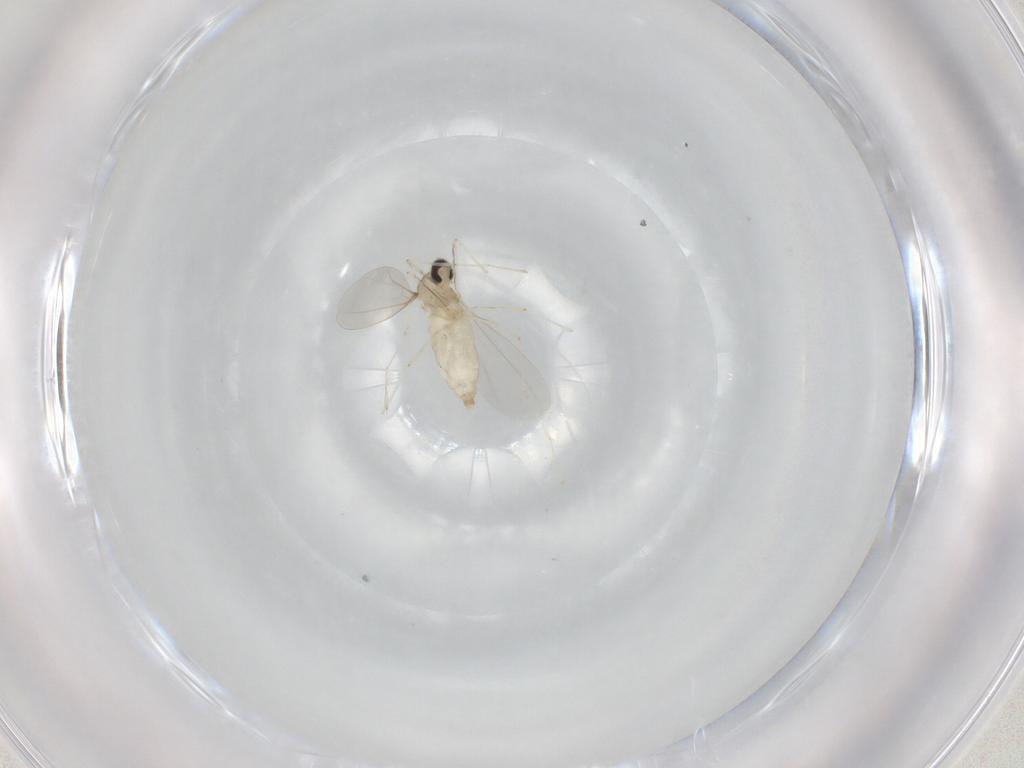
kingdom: Animalia
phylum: Arthropoda
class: Insecta
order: Diptera
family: Cecidomyiidae
